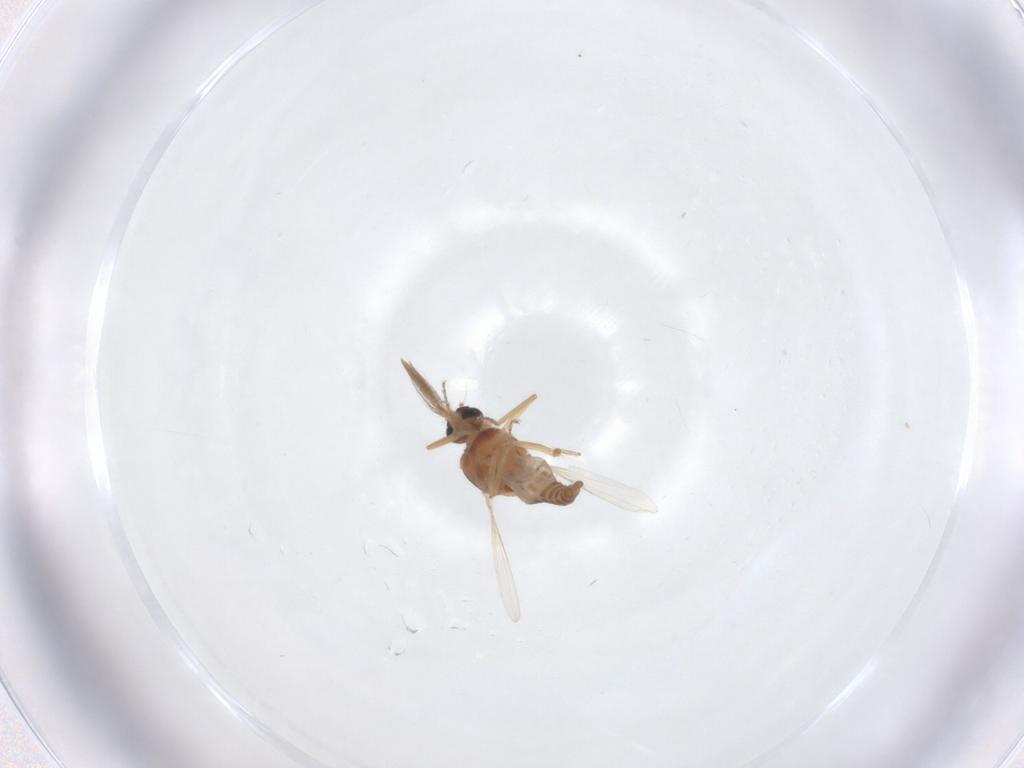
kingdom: Animalia
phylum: Arthropoda
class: Insecta
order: Diptera
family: Ceratopogonidae
